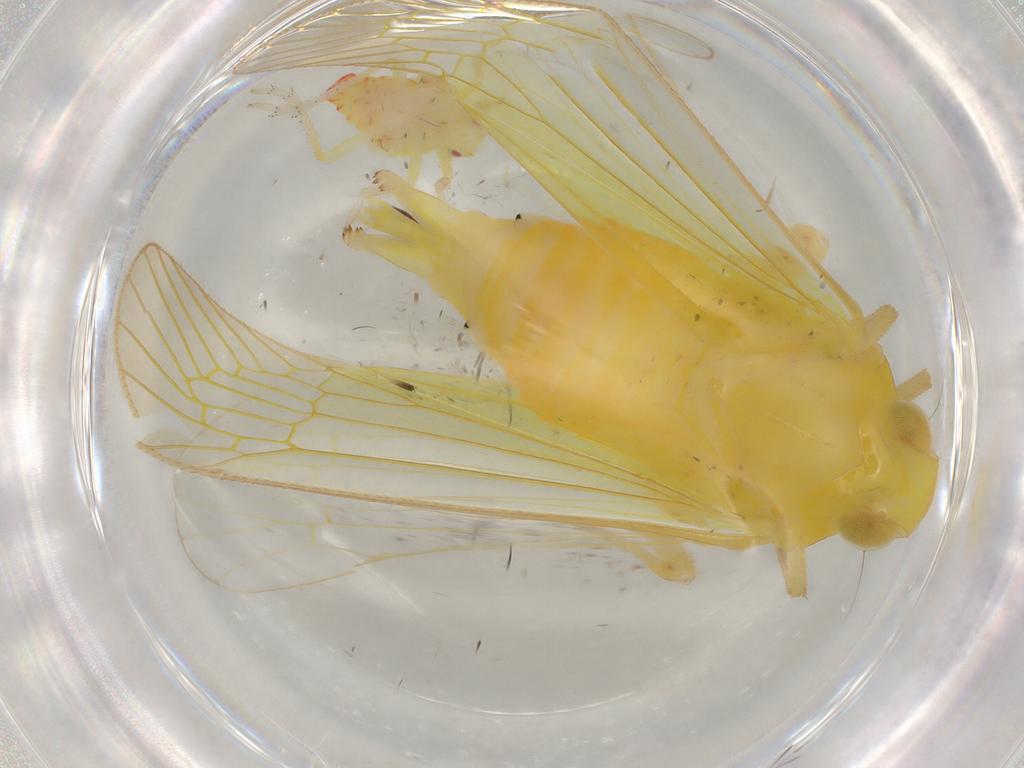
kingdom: Animalia
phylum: Arthropoda
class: Insecta
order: Hemiptera
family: Tropiduchidae
